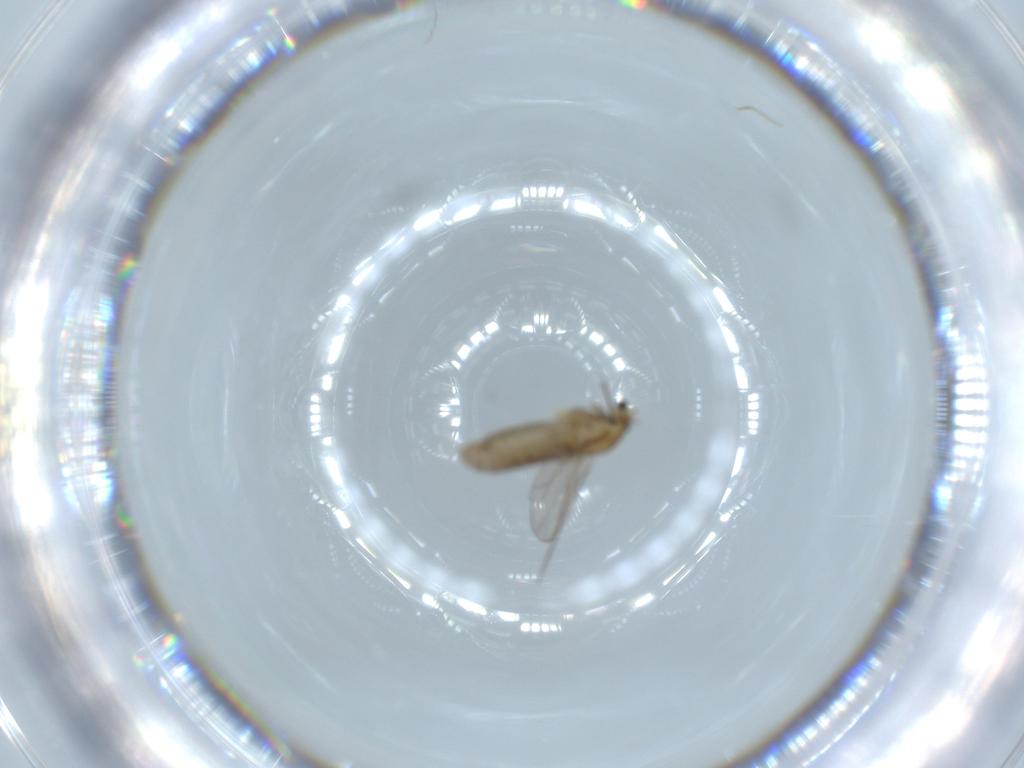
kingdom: Animalia
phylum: Arthropoda
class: Insecta
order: Diptera
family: Chironomidae
